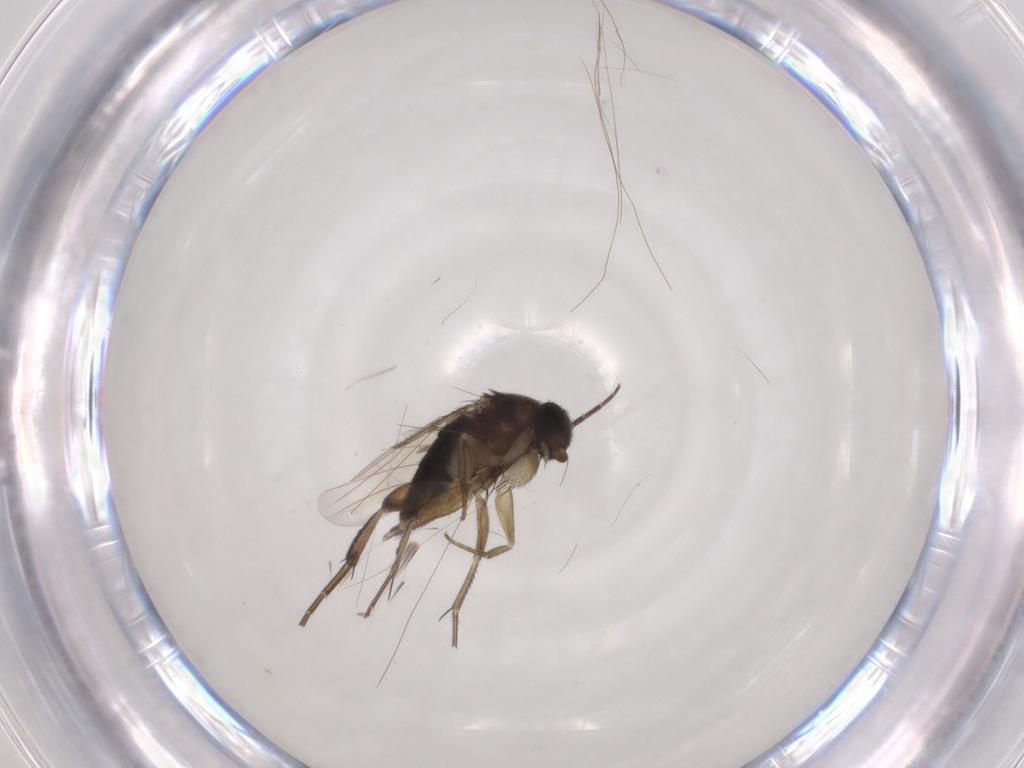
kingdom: Animalia
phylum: Arthropoda
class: Insecta
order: Diptera
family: Phoridae
